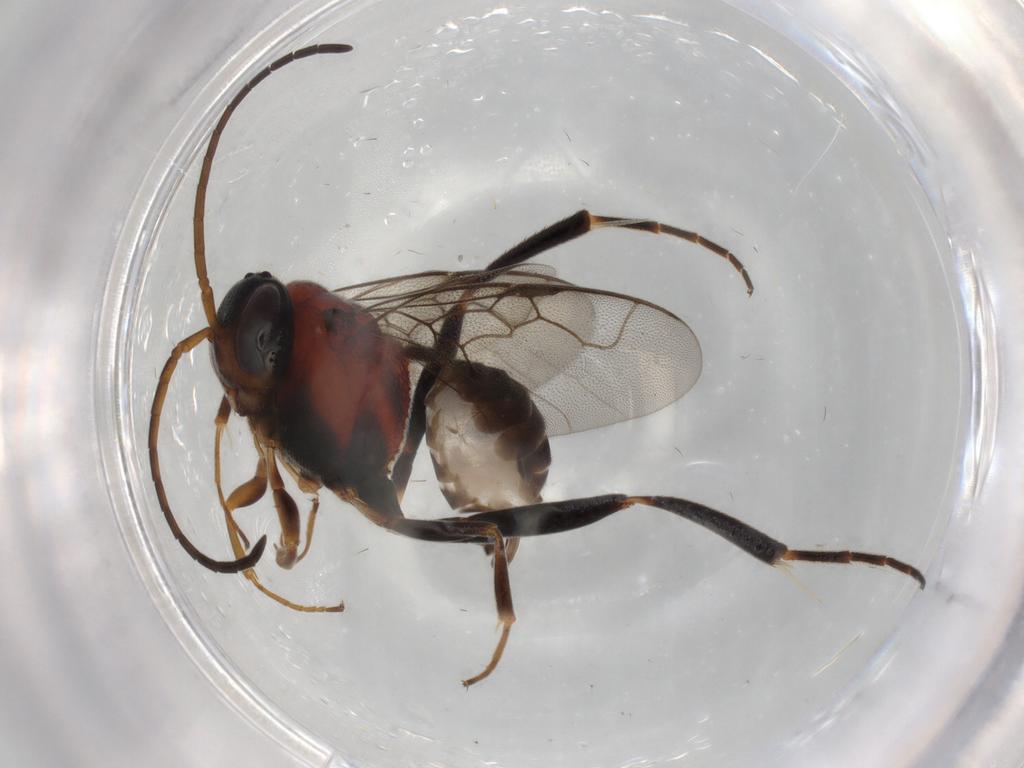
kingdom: Animalia
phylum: Arthropoda
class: Insecta
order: Hymenoptera
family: Evaniidae
